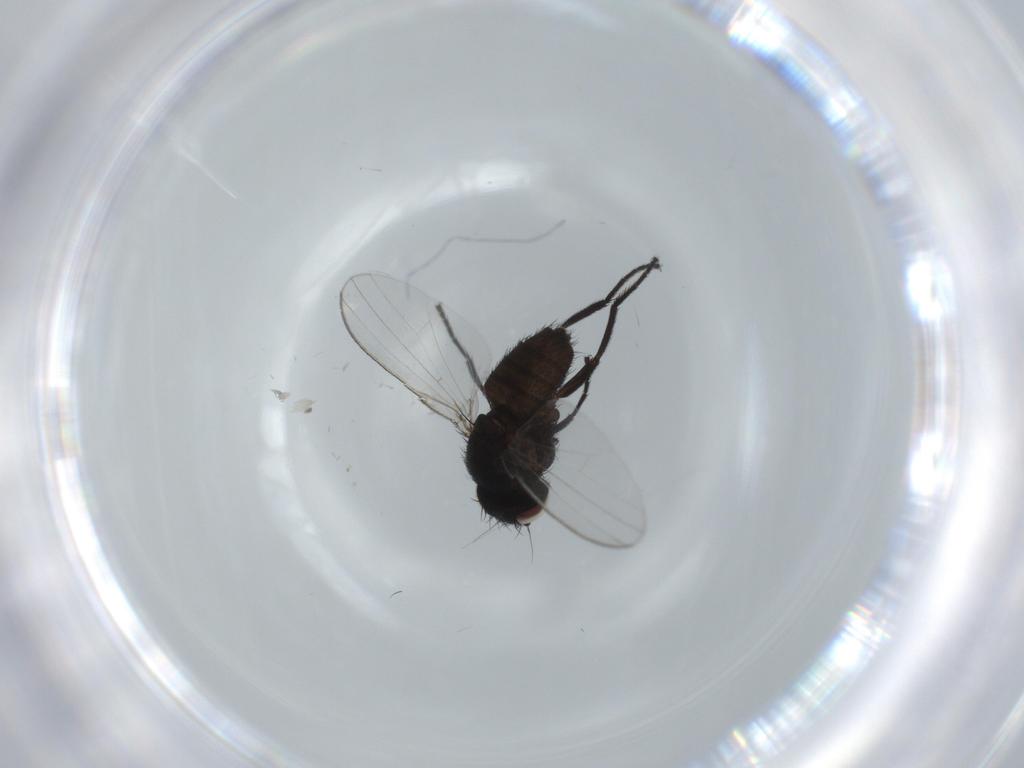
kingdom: Animalia
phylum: Arthropoda
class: Insecta
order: Diptera
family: Milichiidae
